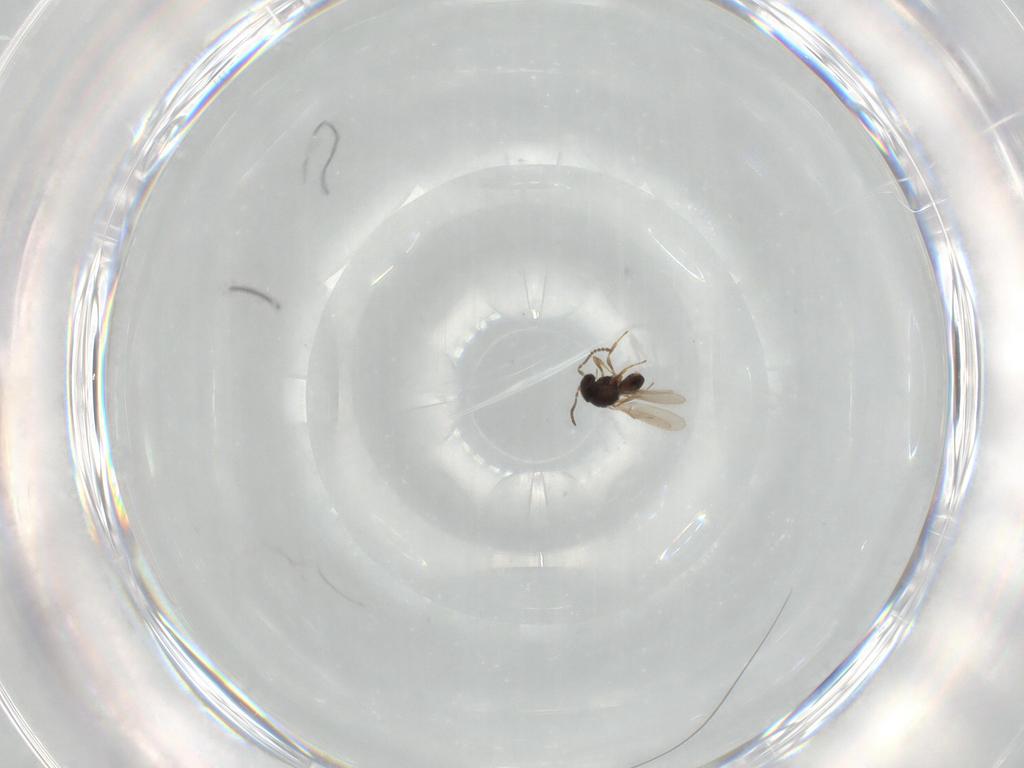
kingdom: Animalia
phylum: Arthropoda
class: Insecta
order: Hymenoptera
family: Scelionidae
